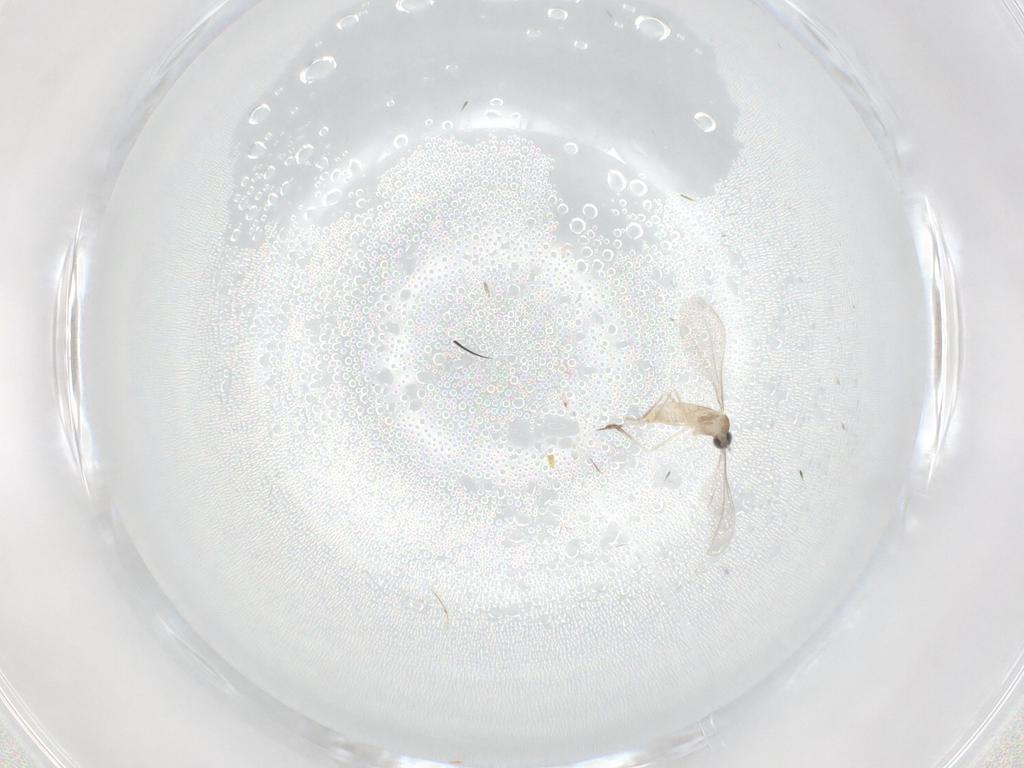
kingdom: Animalia
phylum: Arthropoda
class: Insecta
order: Diptera
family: Cecidomyiidae
